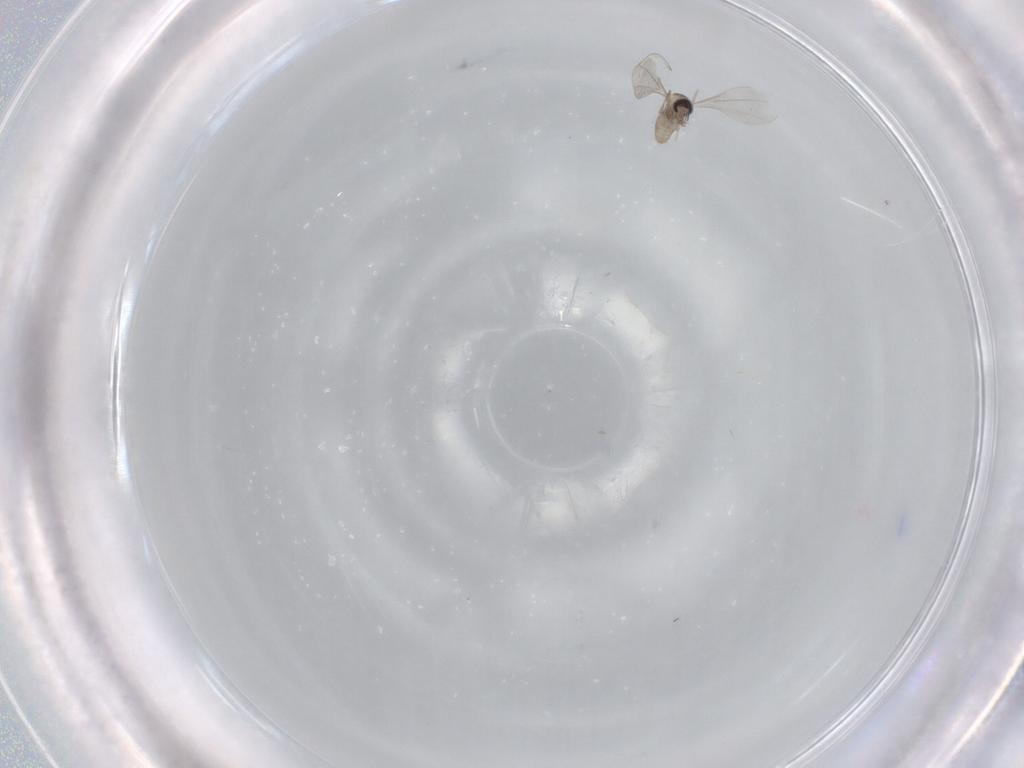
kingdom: Animalia
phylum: Arthropoda
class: Insecta
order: Diptera
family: Cecidomyiidae
